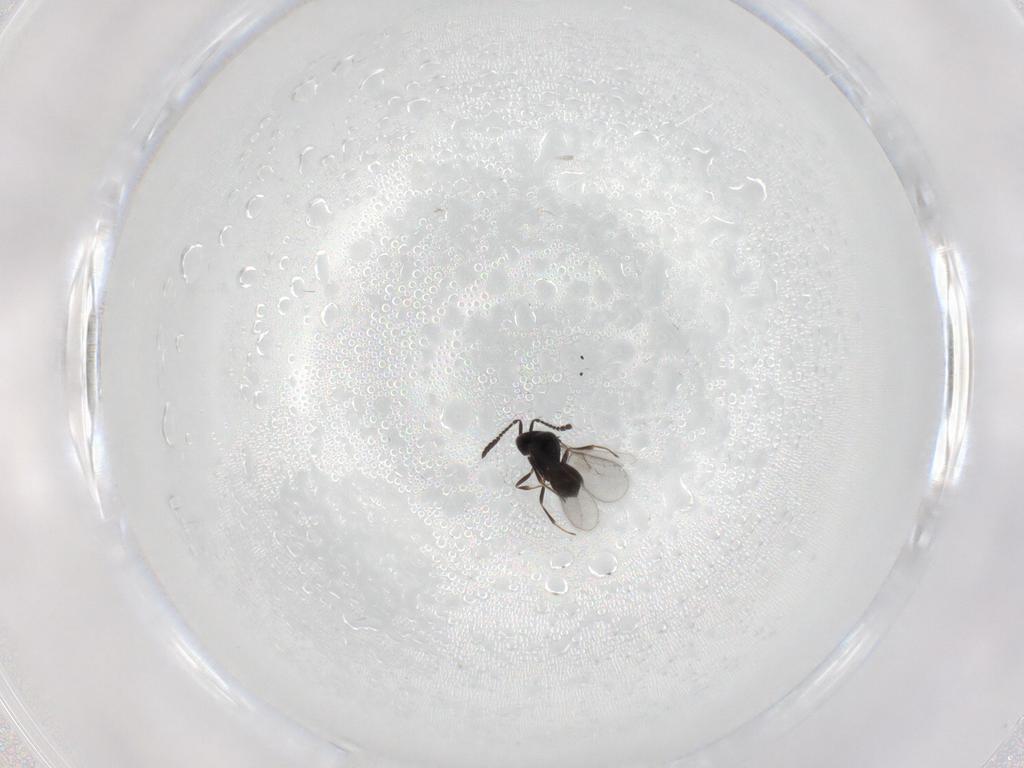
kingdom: Animalia
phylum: Arthropoda
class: Insecta
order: Hymenoptera
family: Scelionidae
